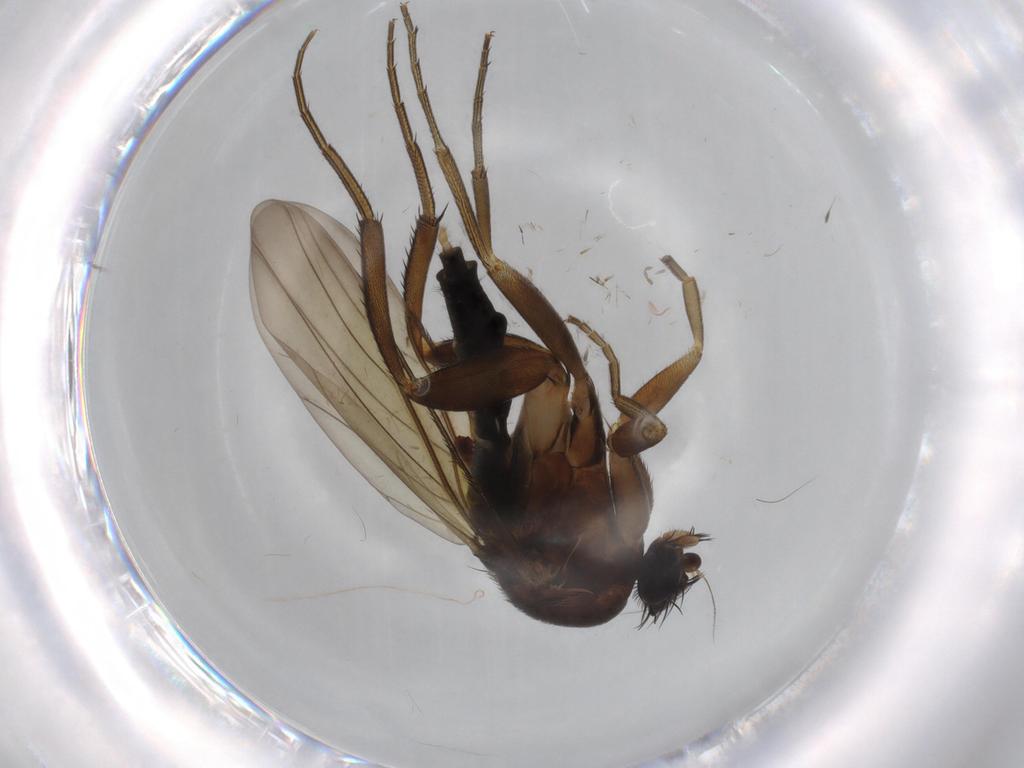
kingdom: Animalia
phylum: Arthropoda
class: Insecta
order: Diptera
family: Phoridae
